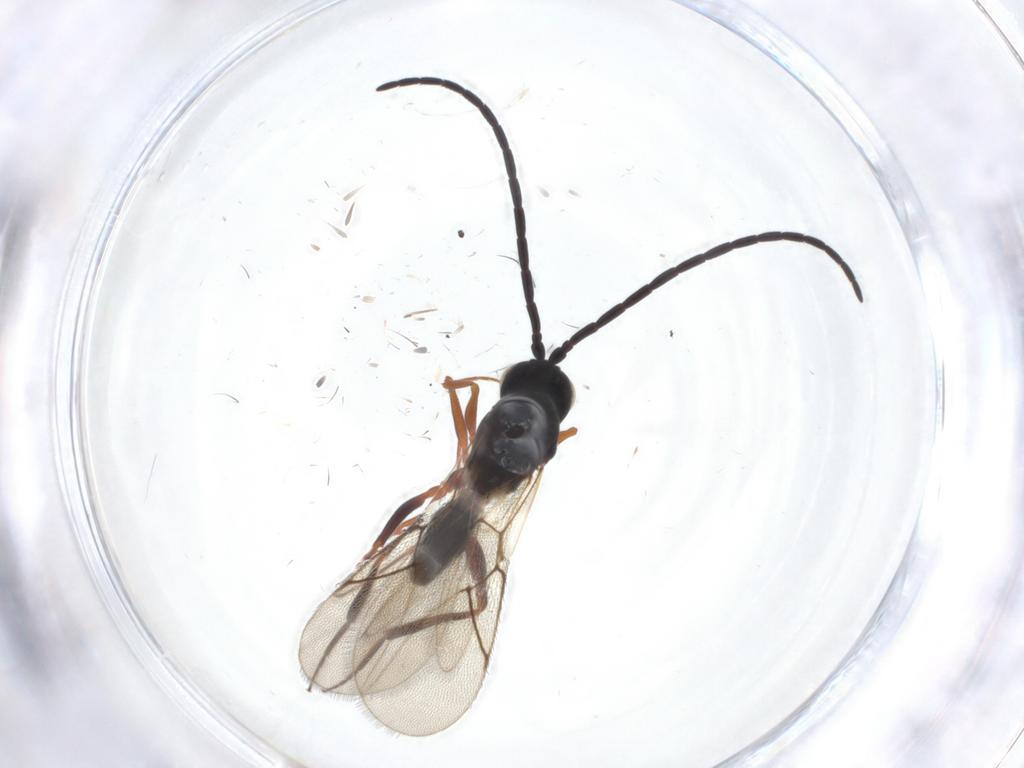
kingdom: Animalia
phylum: Arthropoda
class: Insecta
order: Hymenoptera
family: Figitidae
